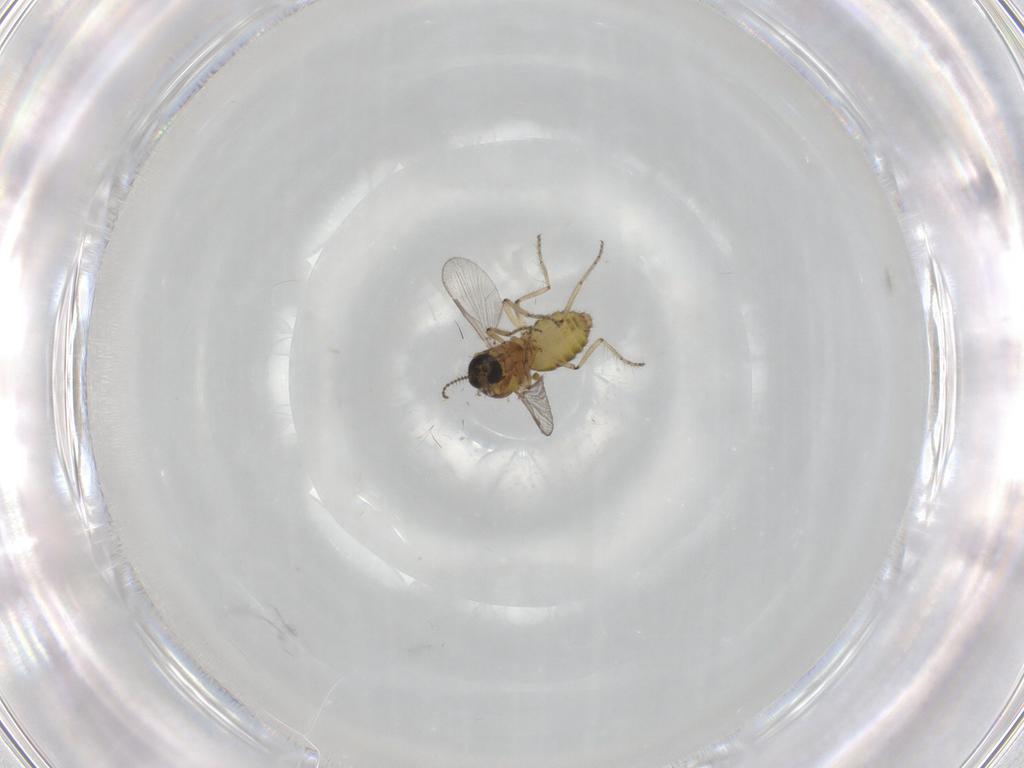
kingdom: Animalia
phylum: Arthropoda
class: Insecta
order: Diptera
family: Ceratopogonidae
